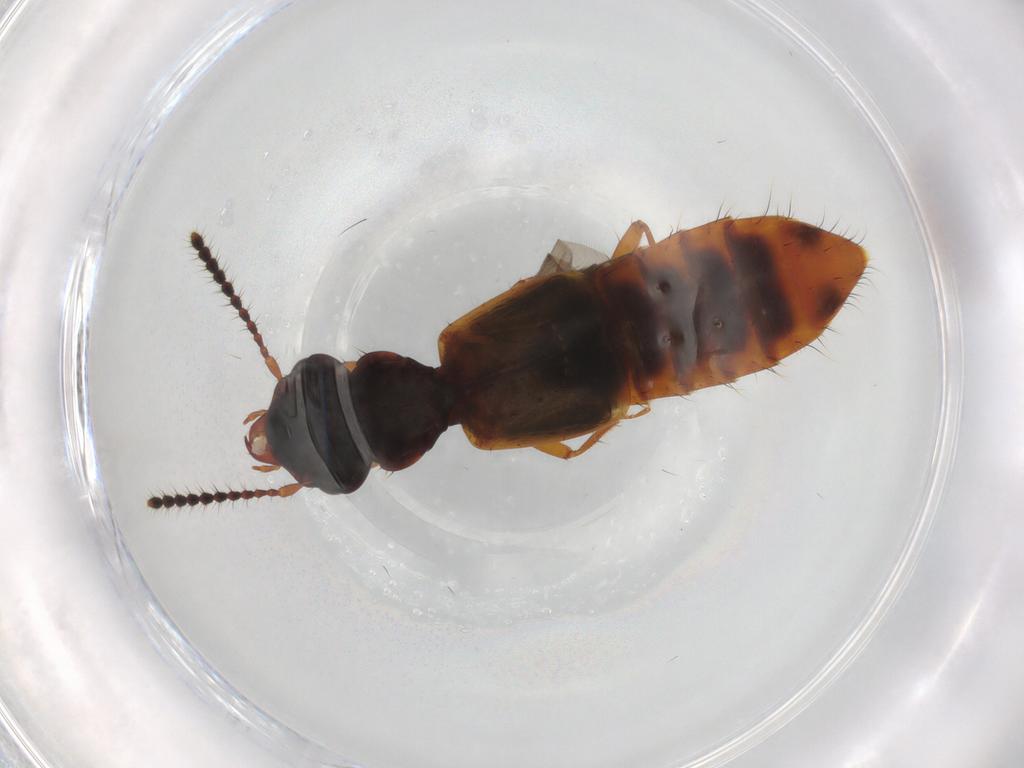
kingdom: Animalia
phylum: Arthropoda
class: Insecta
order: Coleoptera
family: Staphylinidae
